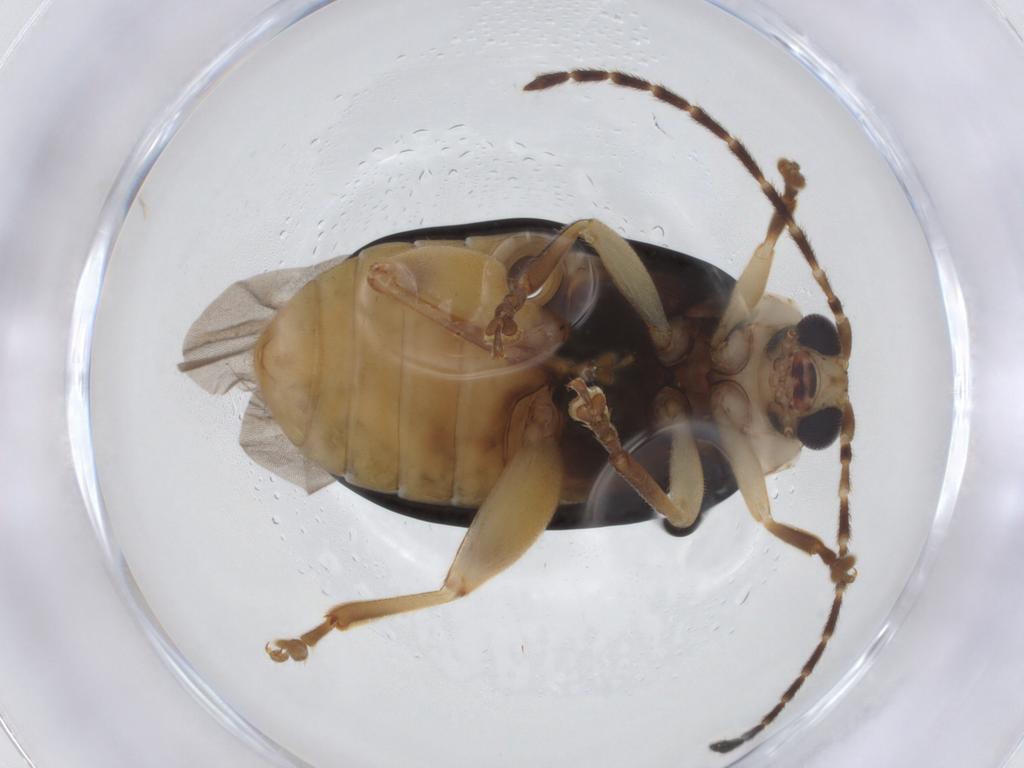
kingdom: Animalia
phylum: Arthropoda
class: Insecta
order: Coleoptera
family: Chrysomelidae
